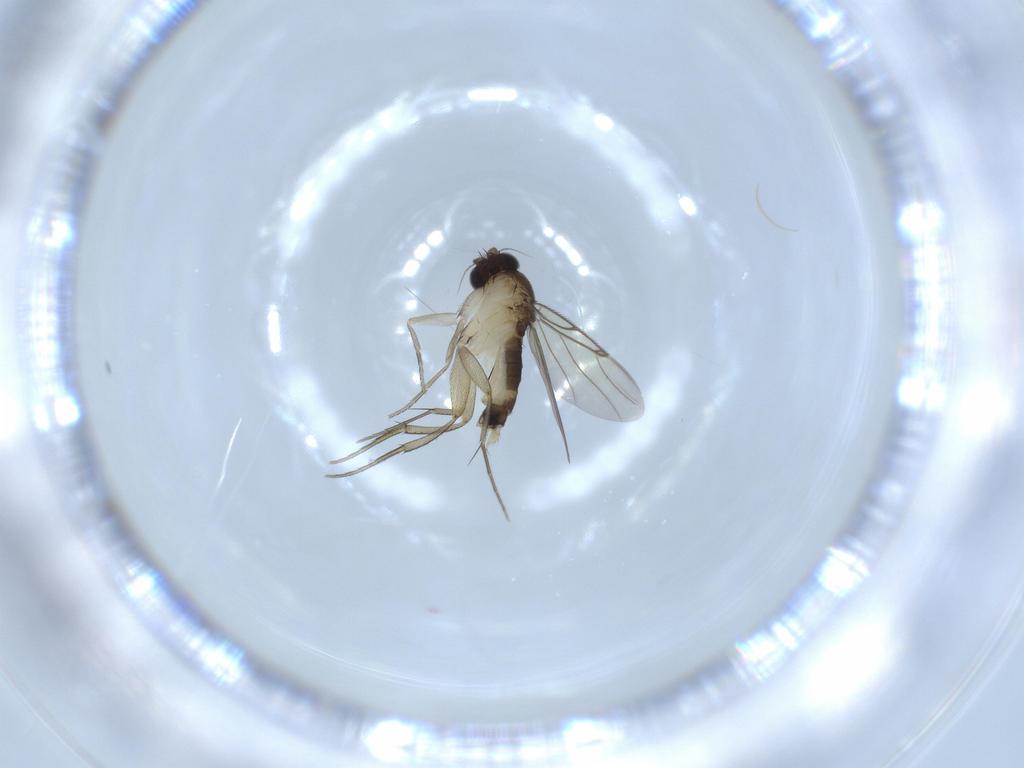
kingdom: Animalia
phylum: Arthropoda
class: Insecta
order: Diptera
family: Phoridae
